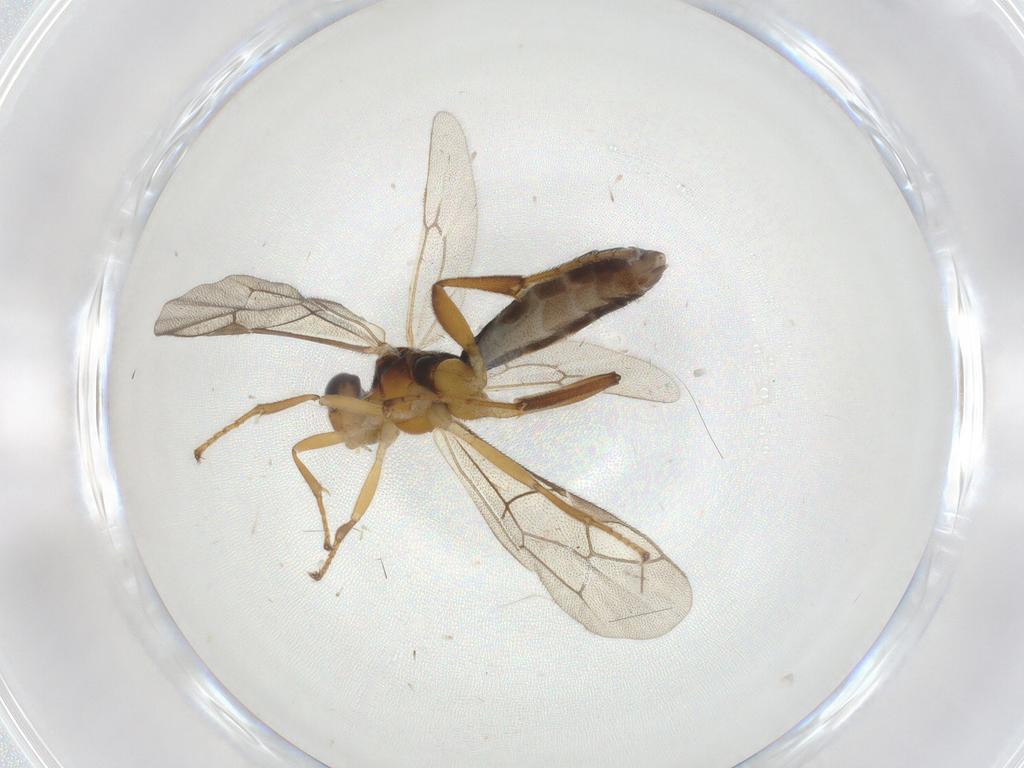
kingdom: Animalia
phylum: Arthropoda
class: Insecta
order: Hymenoptera
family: Ichneumonidae
